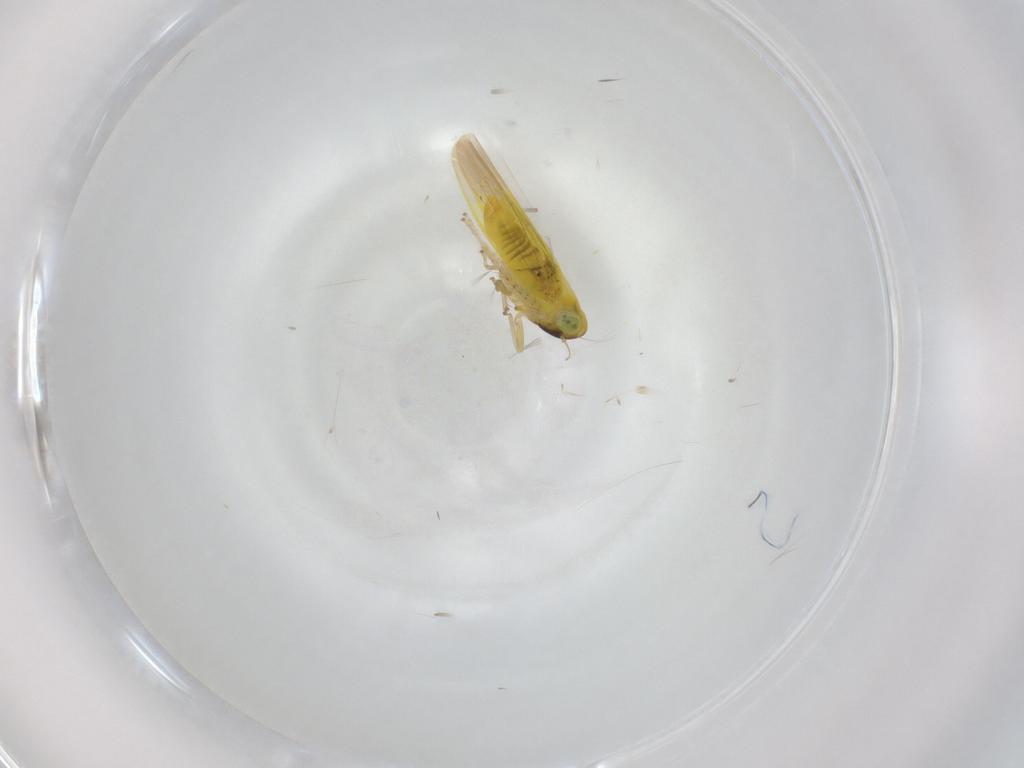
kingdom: Animalia
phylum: Arthropoda
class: Insecta
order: Hemiptera
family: Cicadellidae
